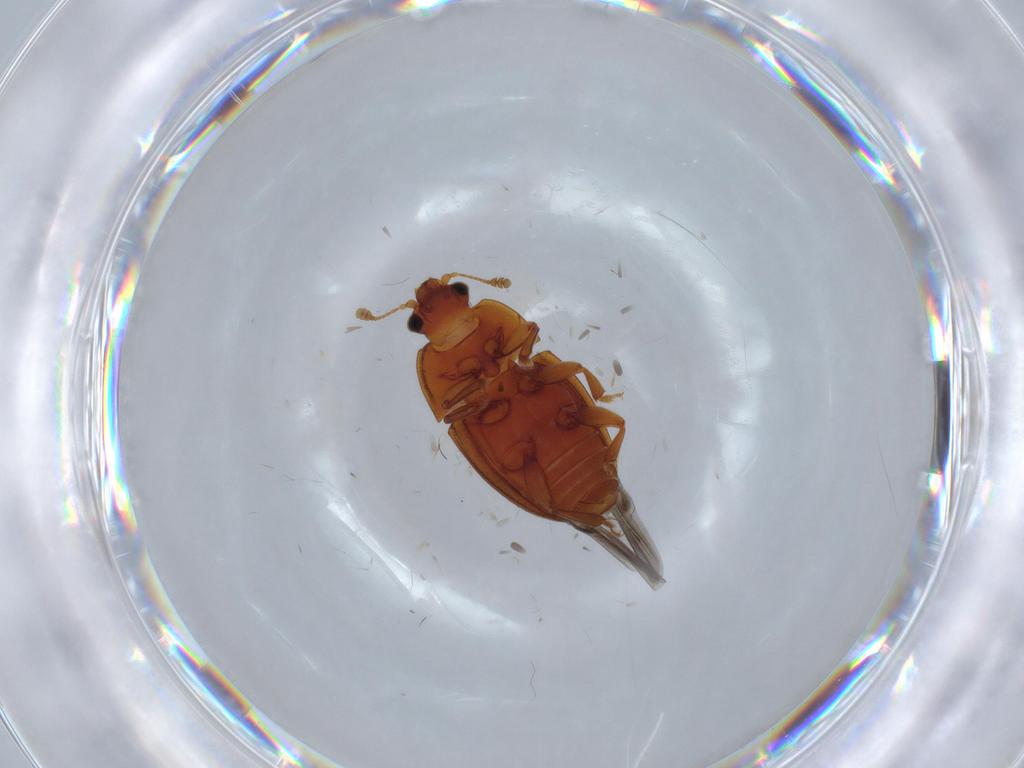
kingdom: Animalia
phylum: Arthropoda
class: Insecta
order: Coleoptera
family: Nitidulidae
